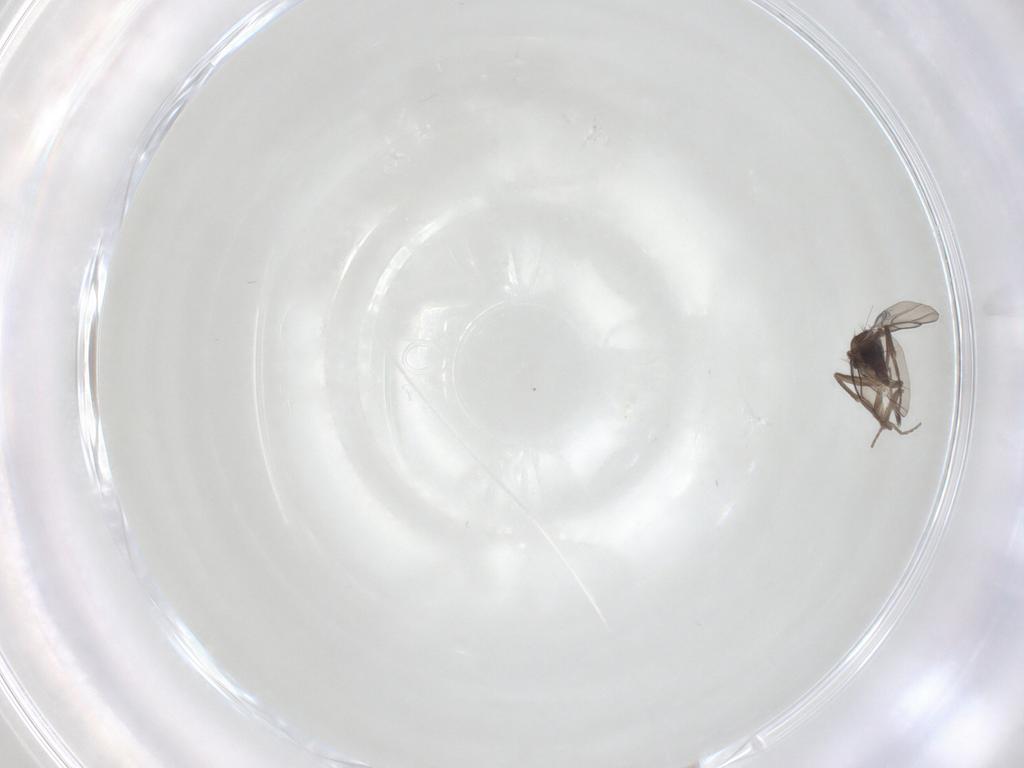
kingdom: Animalia
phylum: Arthropoda
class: Insecta
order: Diptera
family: Phoridae
